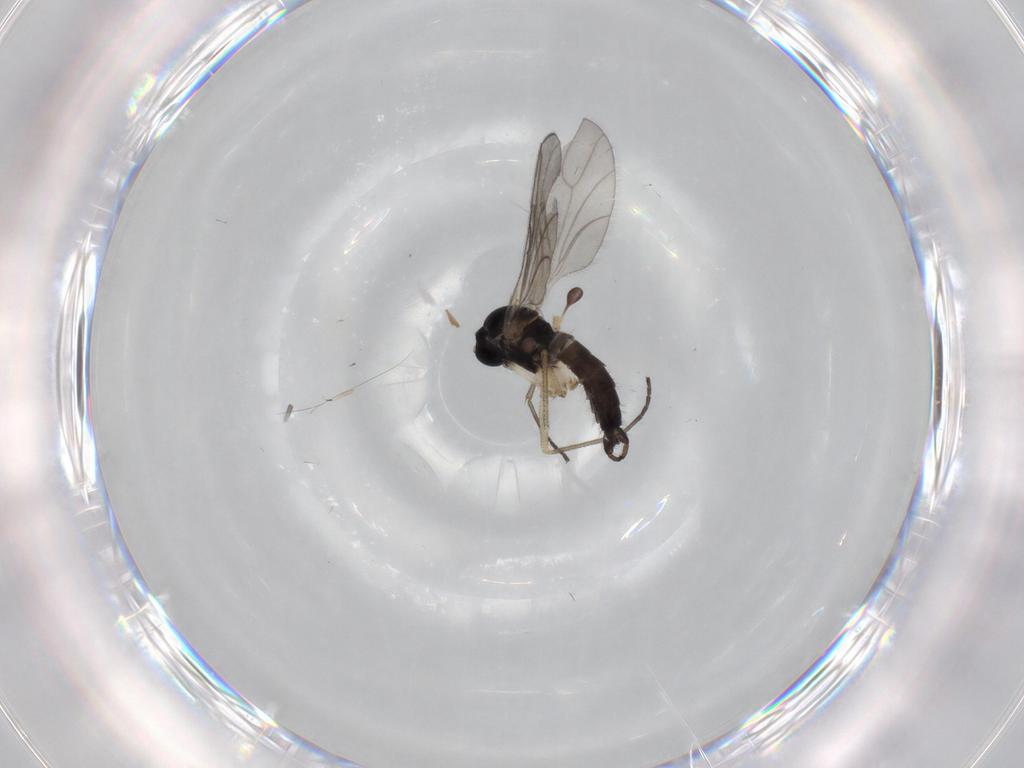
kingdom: Animalia
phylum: Arthropoda
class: Insecta
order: Diptera
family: Sciaridae
